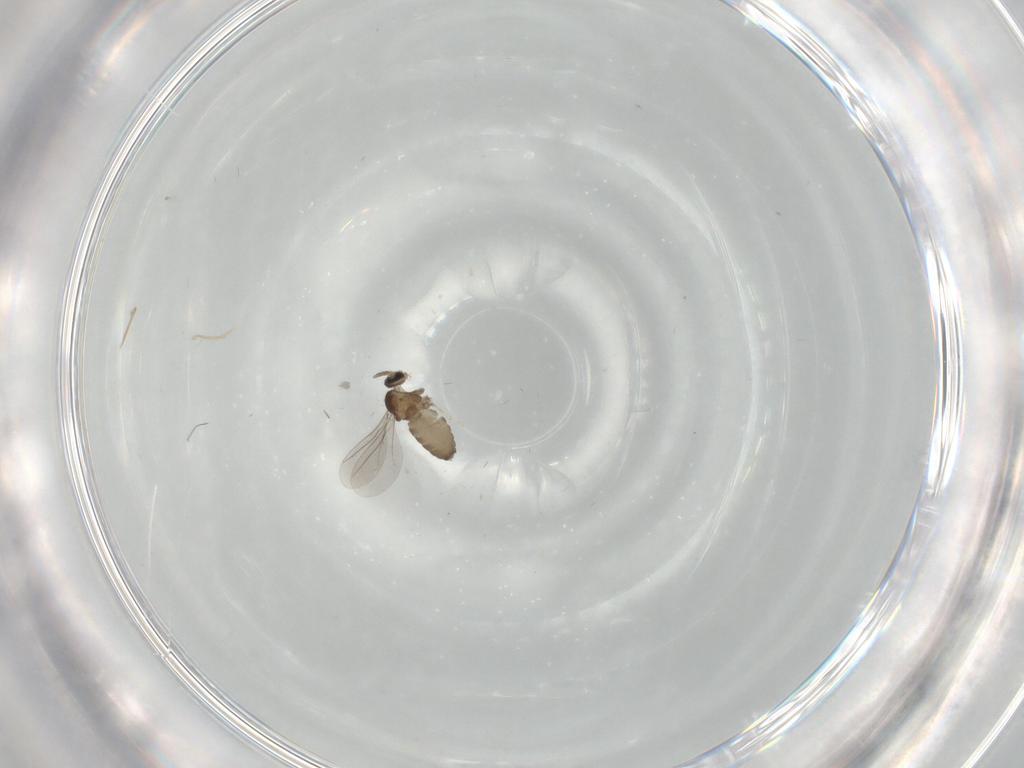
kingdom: Animalia
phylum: Arthropoda
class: Insecta
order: Diptera
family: Cecidomyiidae
